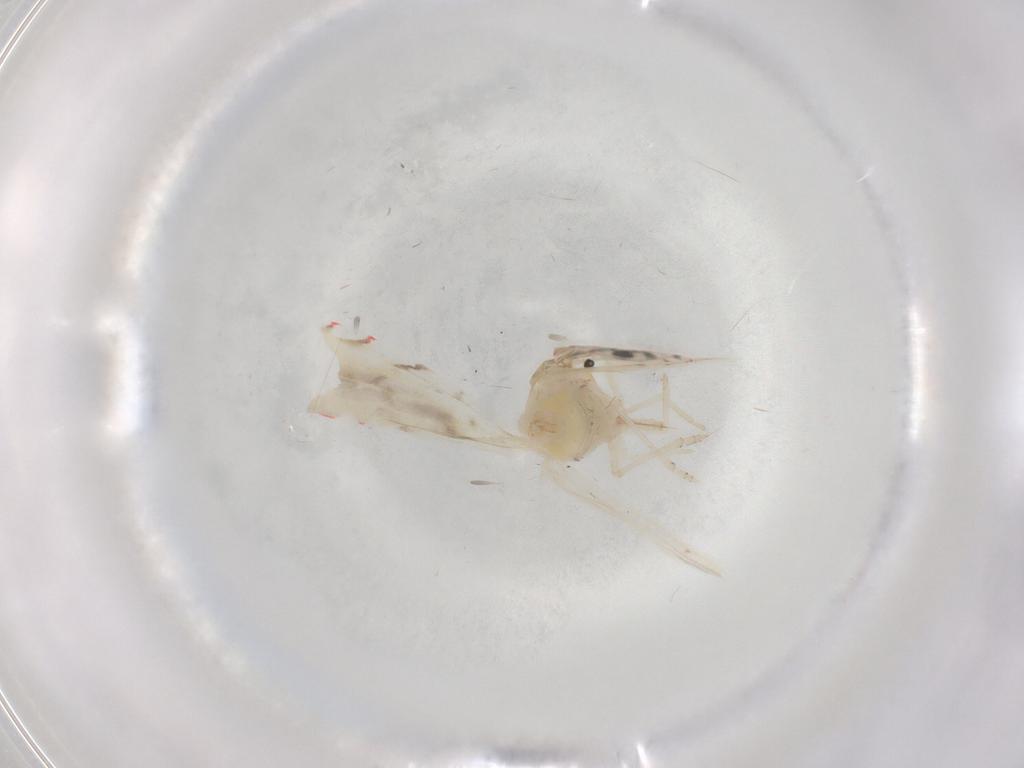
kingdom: Animalia
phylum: Arthropoda
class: Insecta
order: Hemiptera
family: Derbidae
